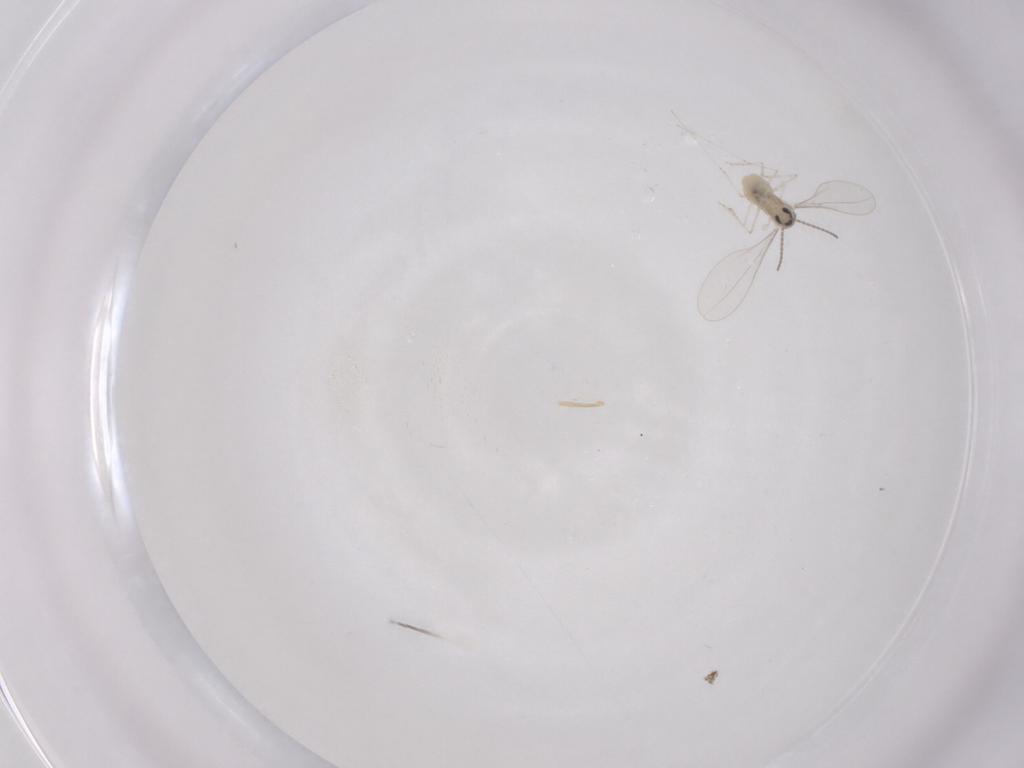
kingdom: Animalia
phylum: Arthropoda
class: Insecta
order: Diptera
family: Cecidomyiidae
